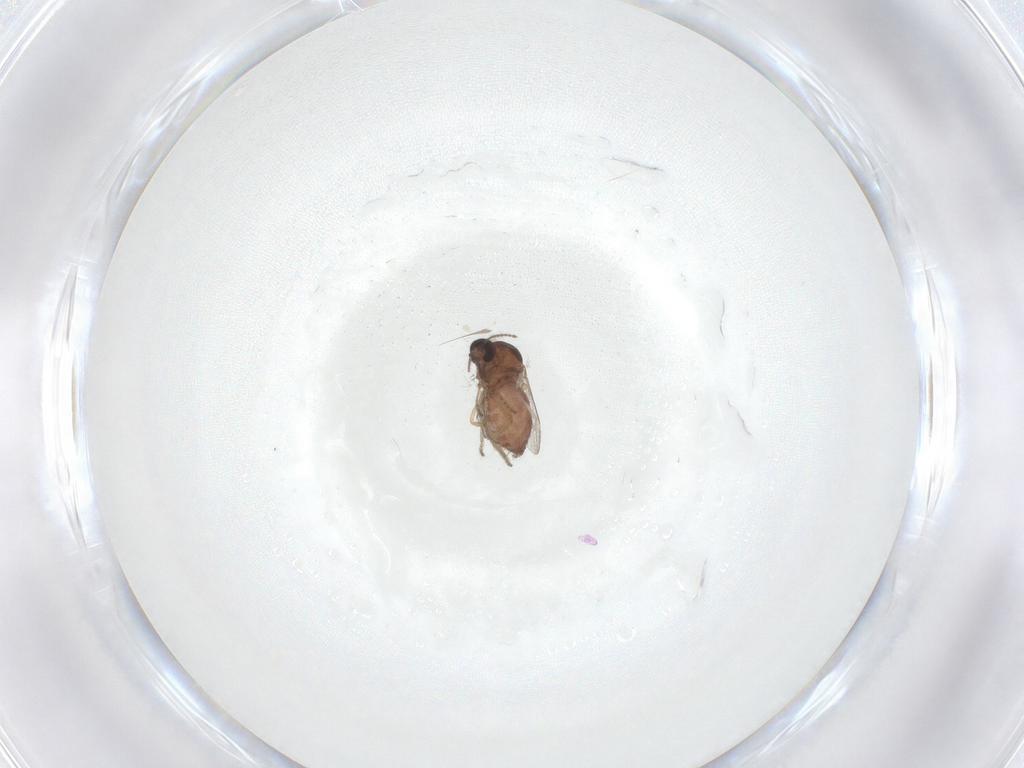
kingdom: Animalia
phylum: Arthropoda
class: Insecta
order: Diptera
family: Ceratopogonidae
